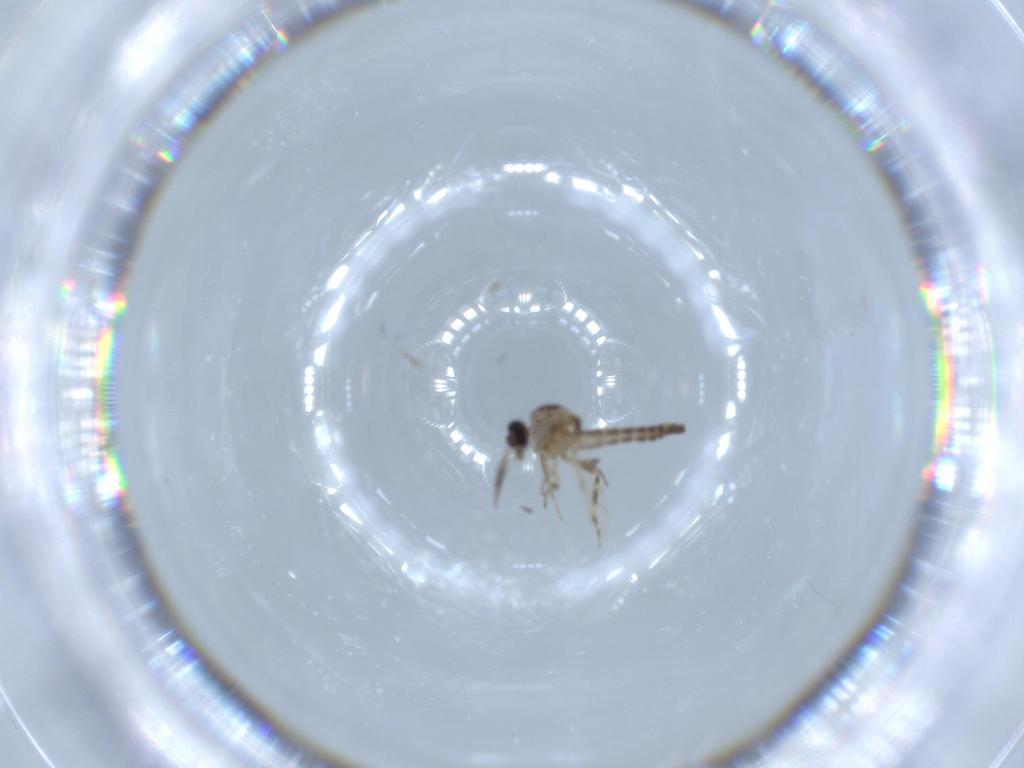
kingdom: Animalia
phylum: Arthropoda
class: Insecta
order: Diptera
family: Ceratopogonidae
